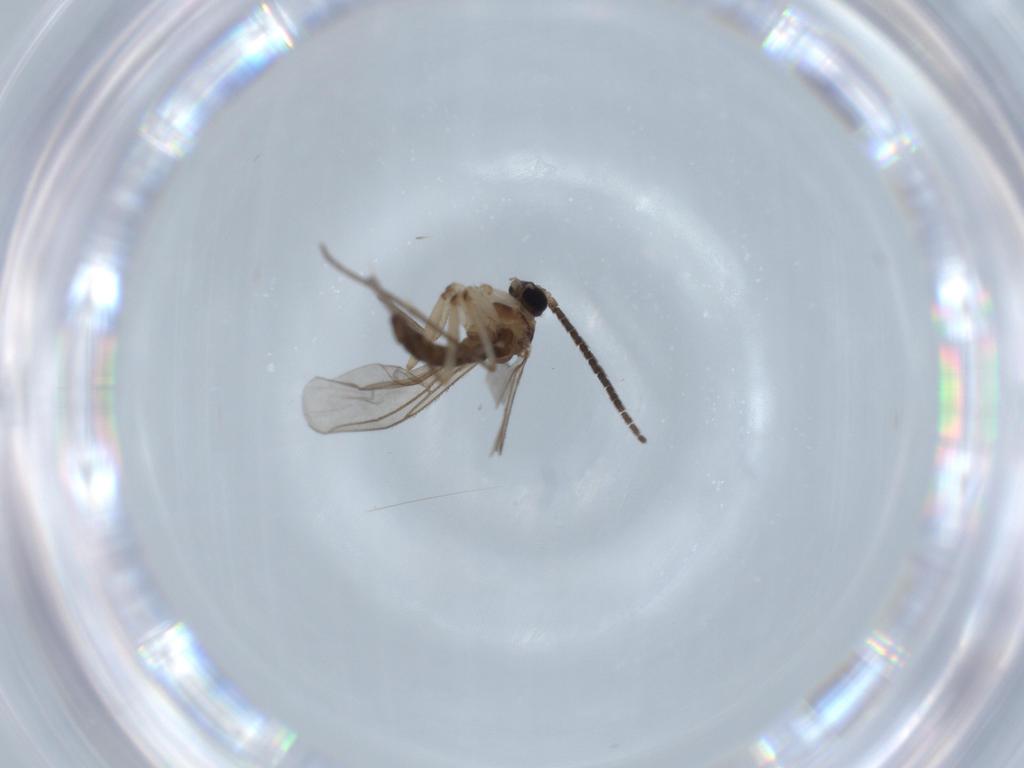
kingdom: Animalia
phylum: Arthropoda
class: Insecta
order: Diptera
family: Sciaridae
